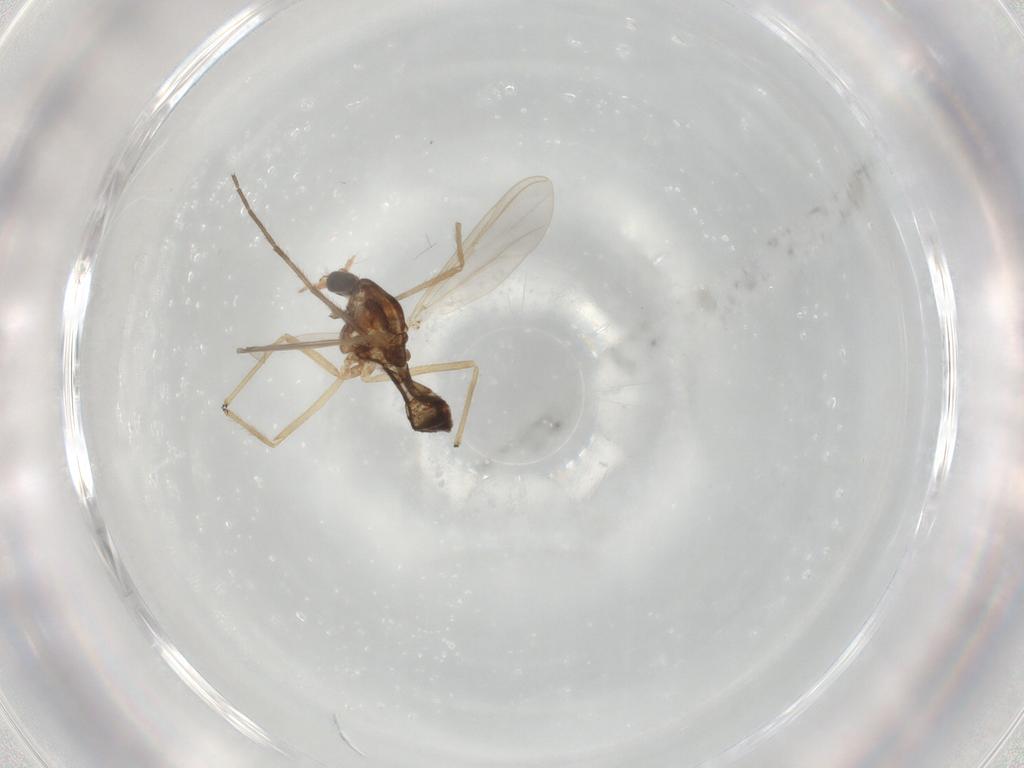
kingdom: Animalia
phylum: Arthropoda
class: Insecta
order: Diptera
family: Chironomidae
